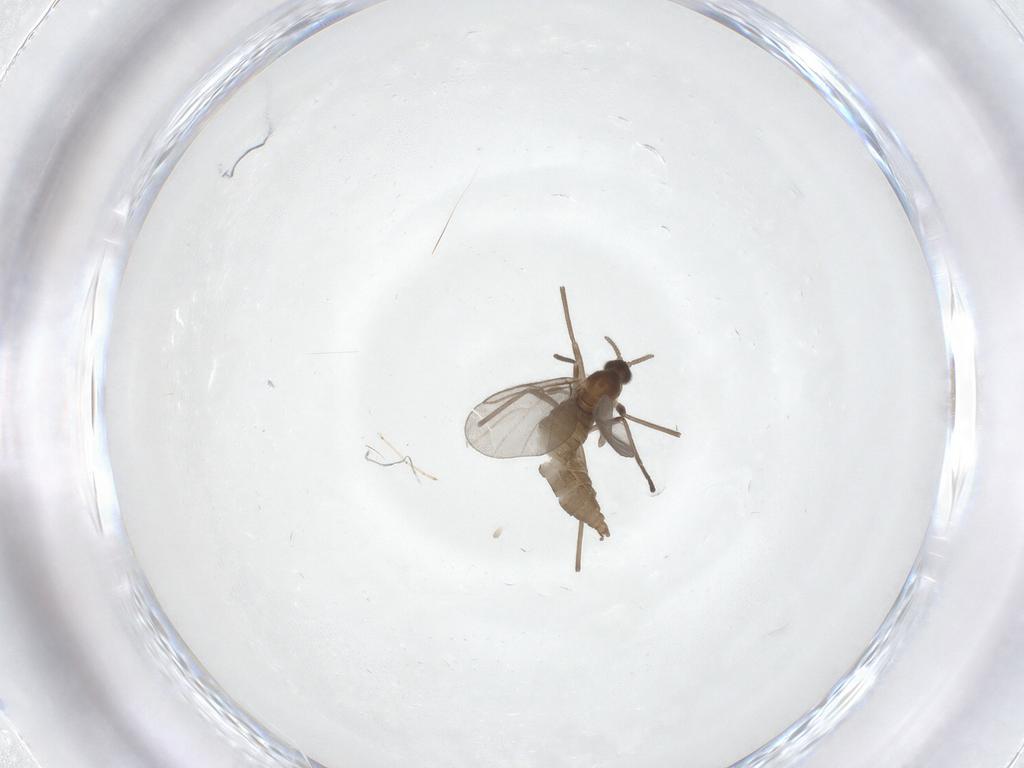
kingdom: Animalia
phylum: Arthropoda
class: Insecta
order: Diptera
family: Cecidomyiidae
